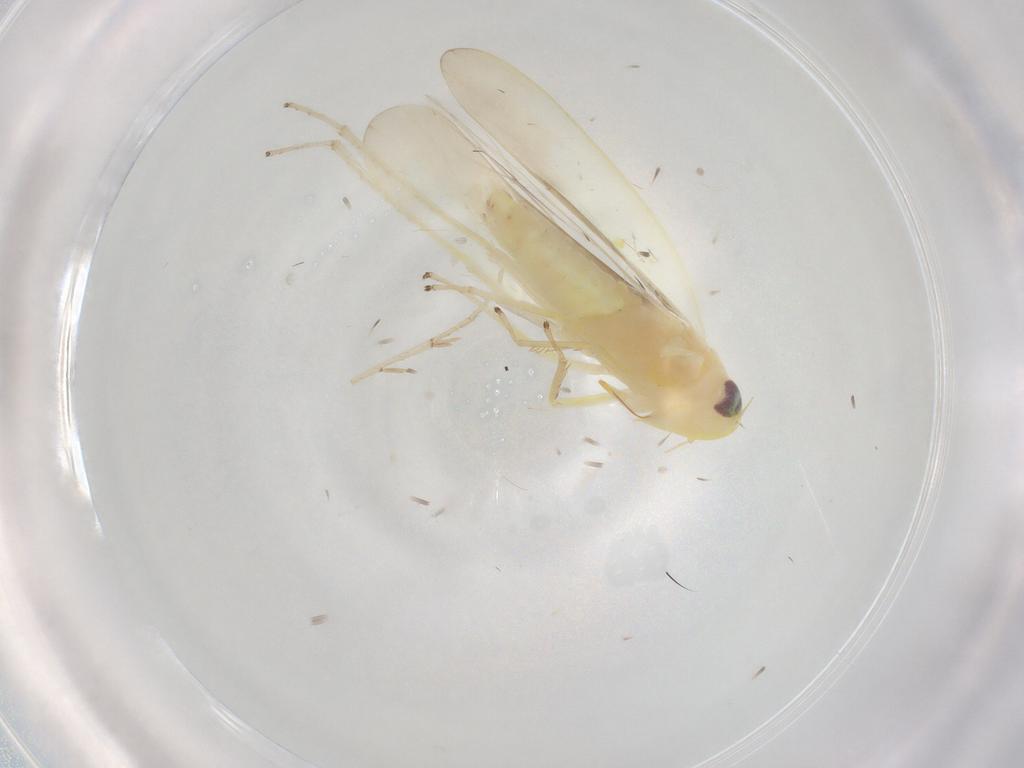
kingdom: Animalia
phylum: Arthropoda
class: Insecta
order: Hemiptera
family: Cicadellidae
